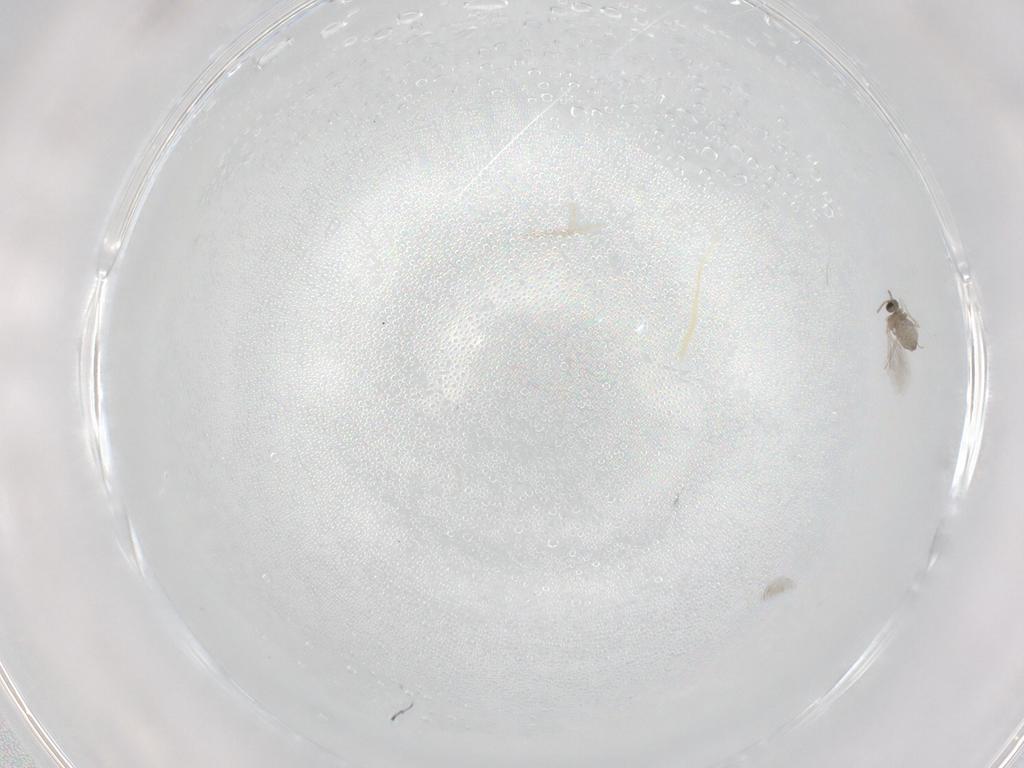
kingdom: Animalia
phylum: Arthropoda
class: Insecta
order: Diptera
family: Cecidomyiidae
